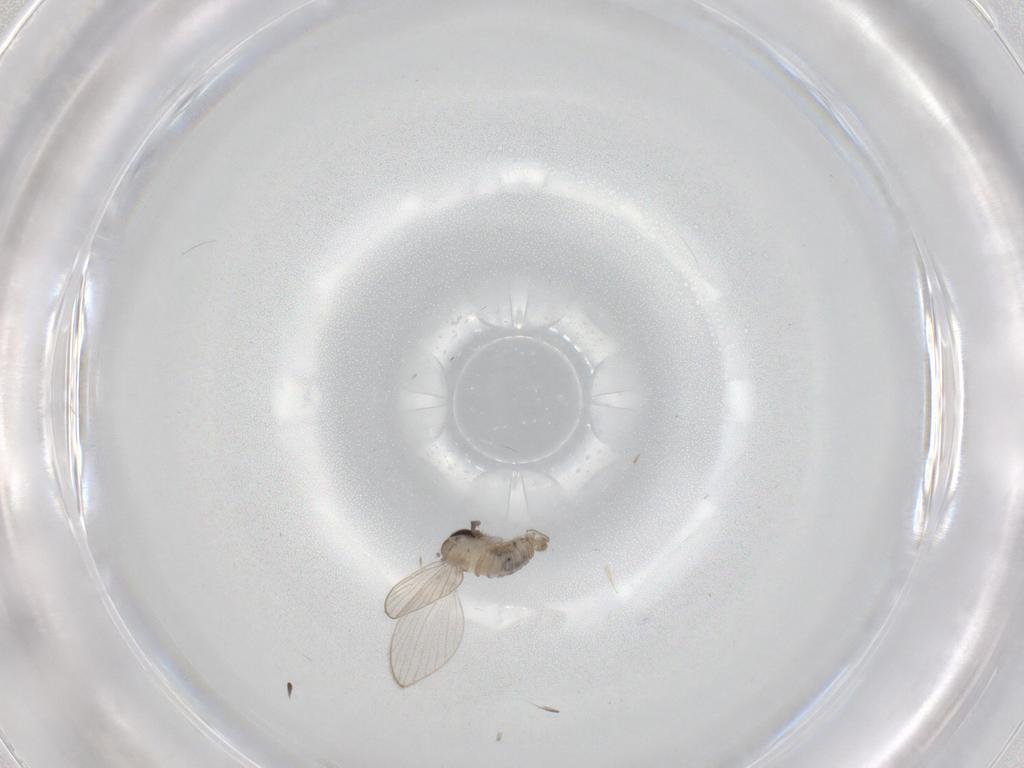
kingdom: Animalia
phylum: Arthropoda
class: Insecta
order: Diptera
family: Psychodidae
